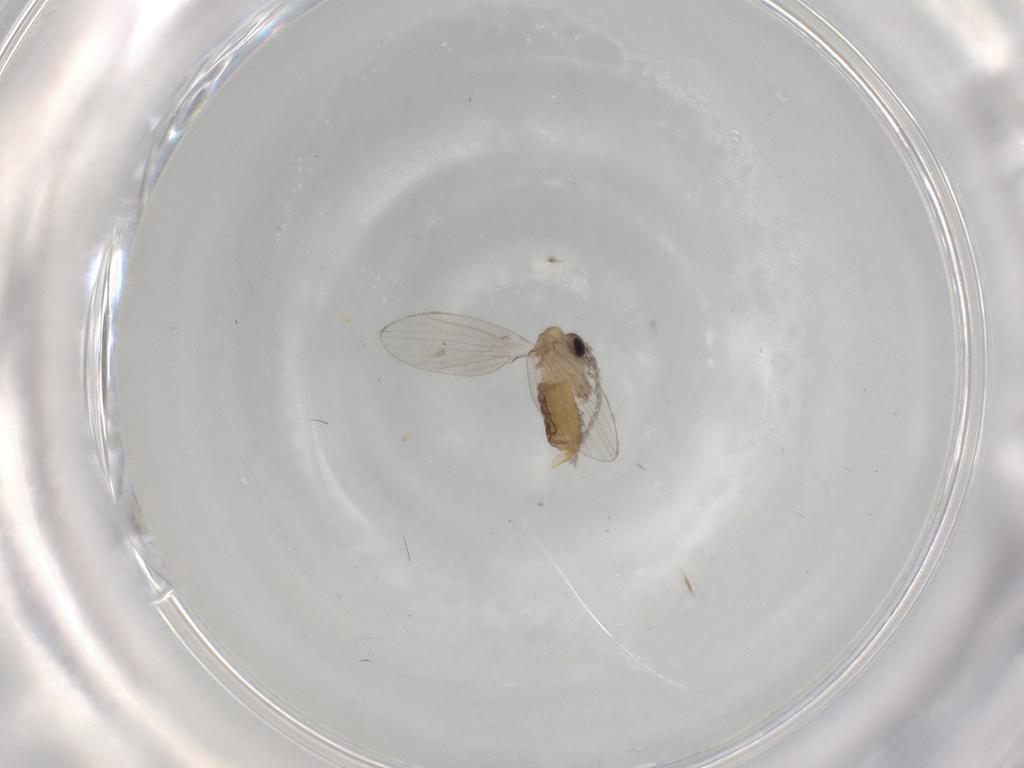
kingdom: Animalia
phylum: Arthropoda
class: Insecta
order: Diptera
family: Psychodidae
